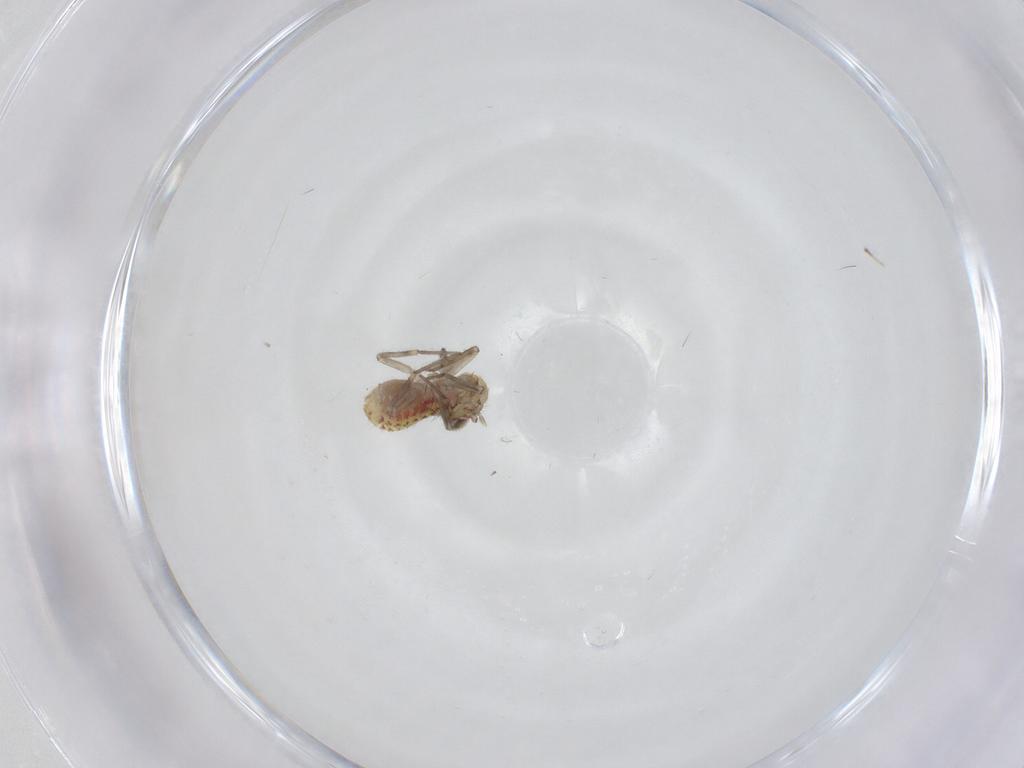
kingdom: Animalia
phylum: Arthropoda
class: Insecta
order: Psocodea
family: Philotarsidae
